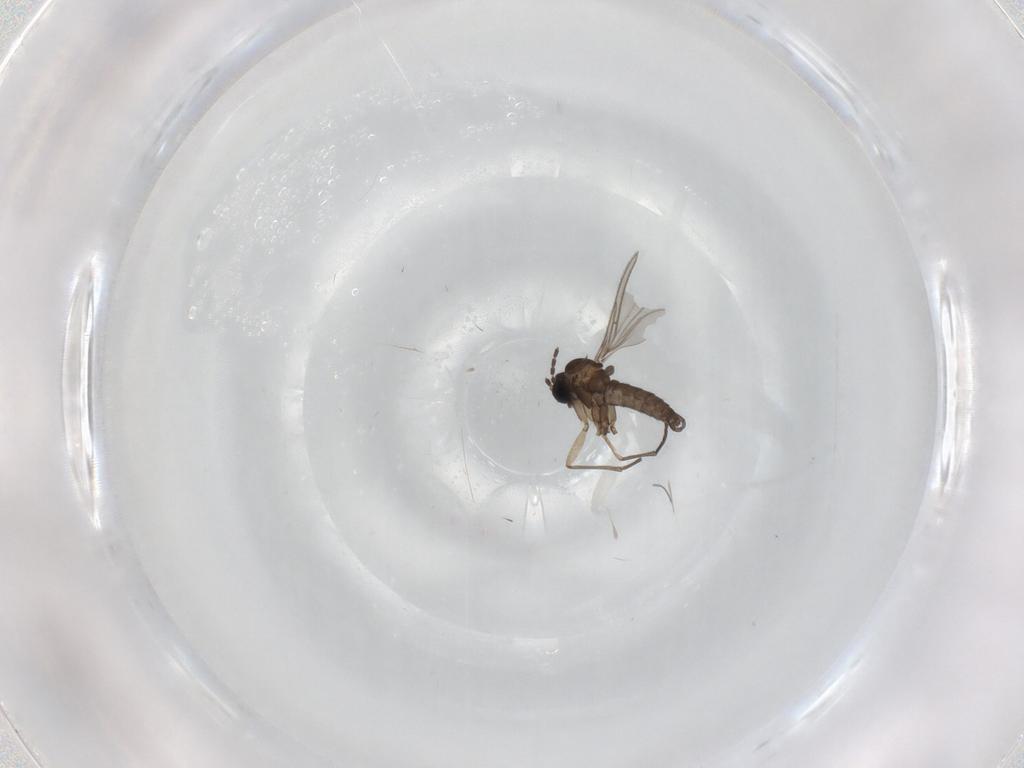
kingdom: Animalia
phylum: Arthropoda
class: Insecta
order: Diptera
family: Sciaridae
